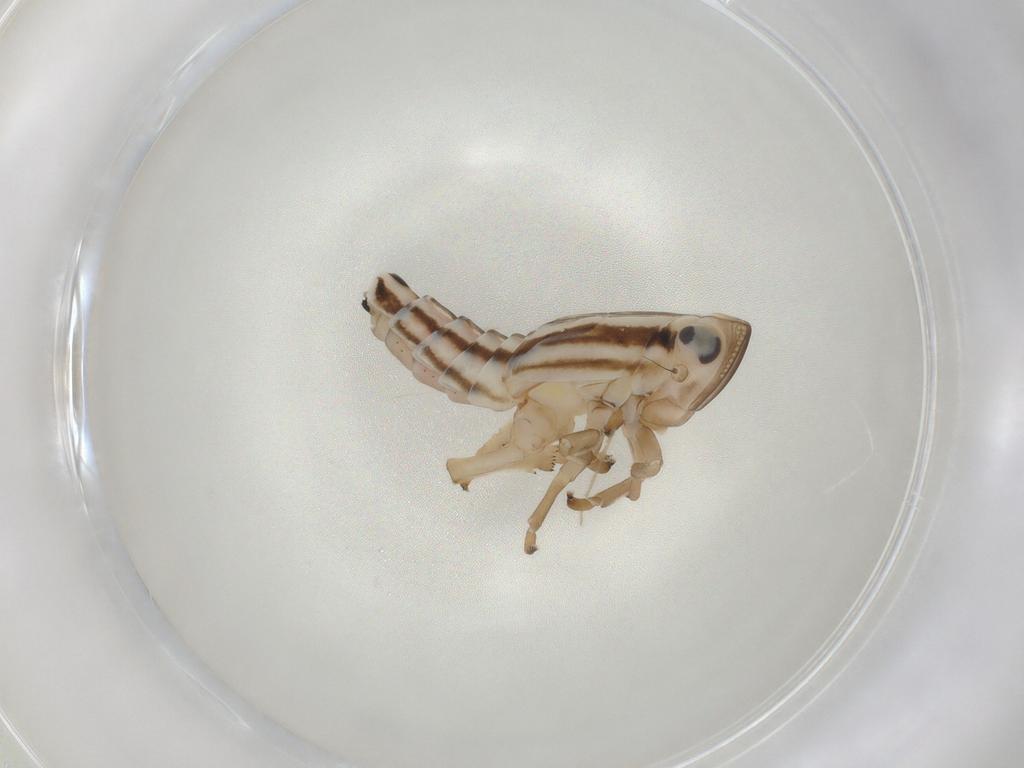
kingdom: Animalia
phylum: Arthropoda
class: Insecta
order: Hemiptera
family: Fulgoroidea_incertae_sedis
